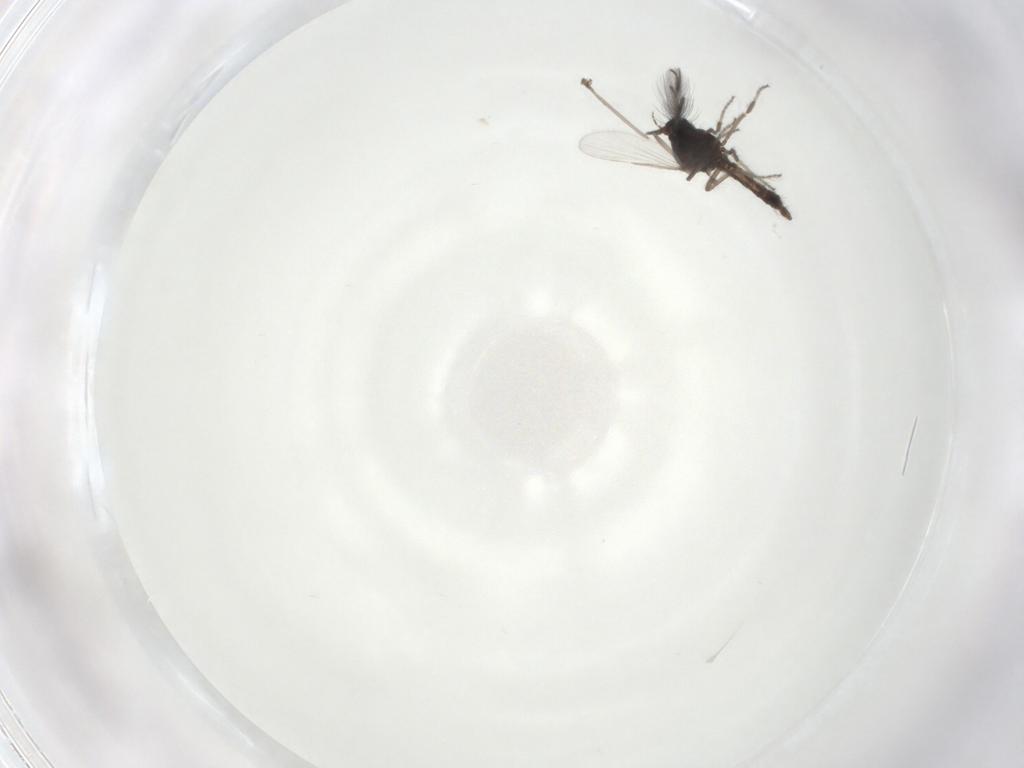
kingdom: Animalia
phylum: Arthropoda
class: Insecta
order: Diptera
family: Ceratopogonidae
